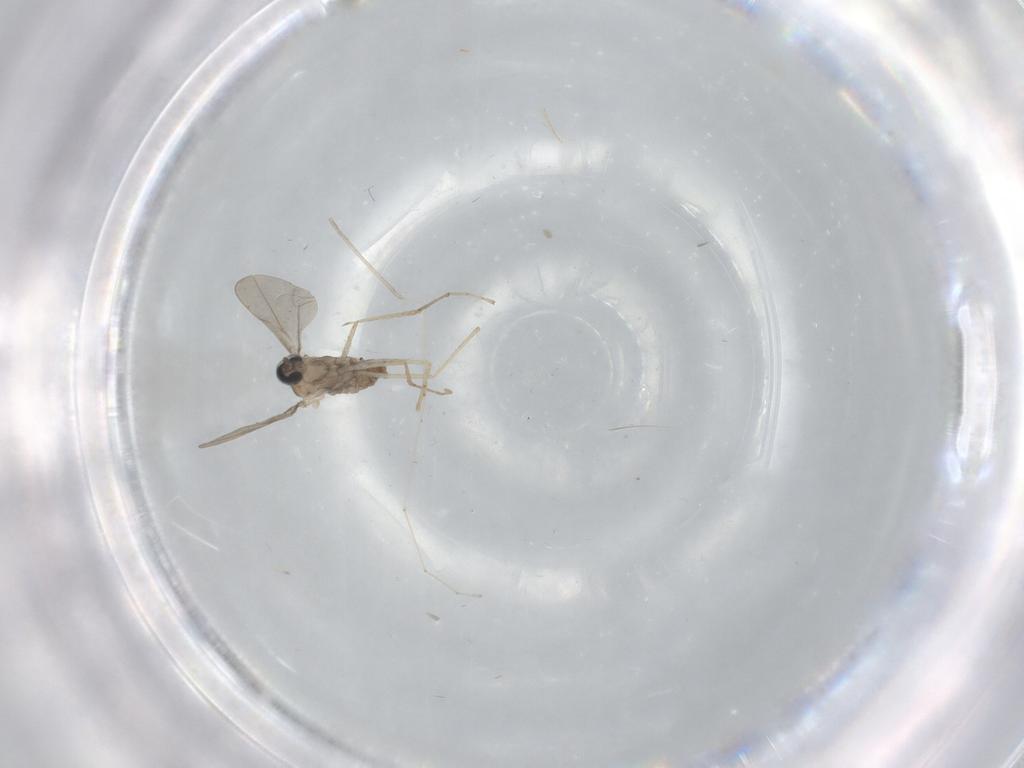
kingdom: Animalia
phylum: Arthropoda
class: Insecta
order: Diptera
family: Cecidomyiidae
